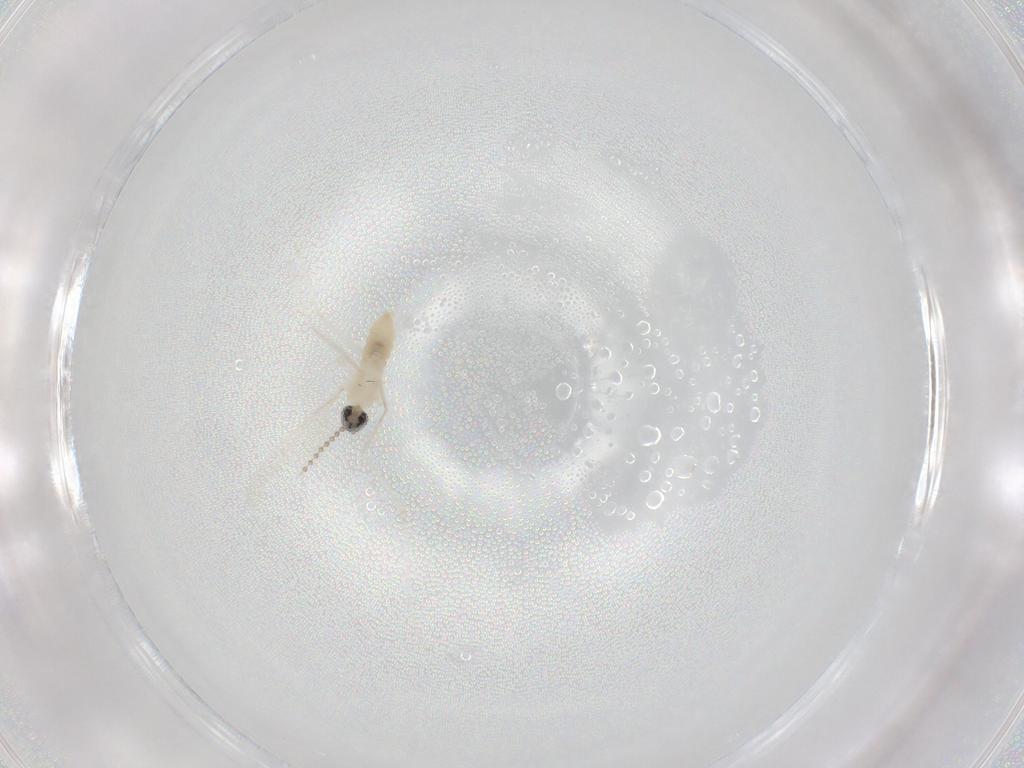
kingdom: Animalia
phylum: Arthropoda
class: Insecta
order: Diptera
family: Cecidomyiidae
